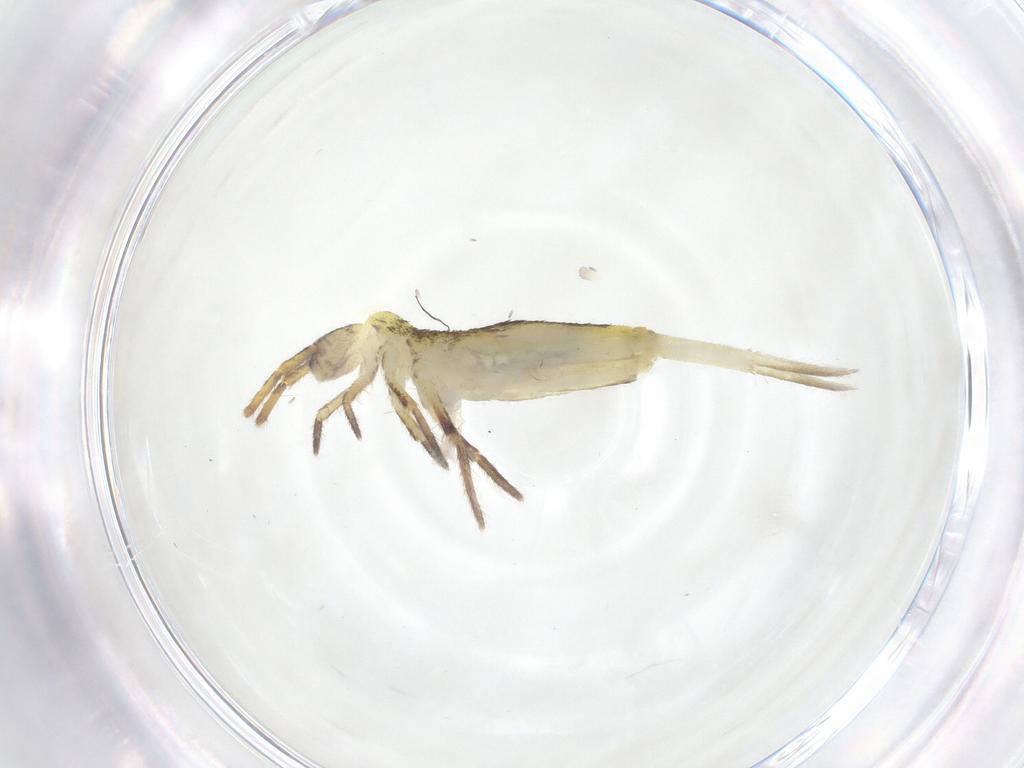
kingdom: Animalia
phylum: Arthropoda
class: Collembola
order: Entomobryomorpha
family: Entomobryidae
